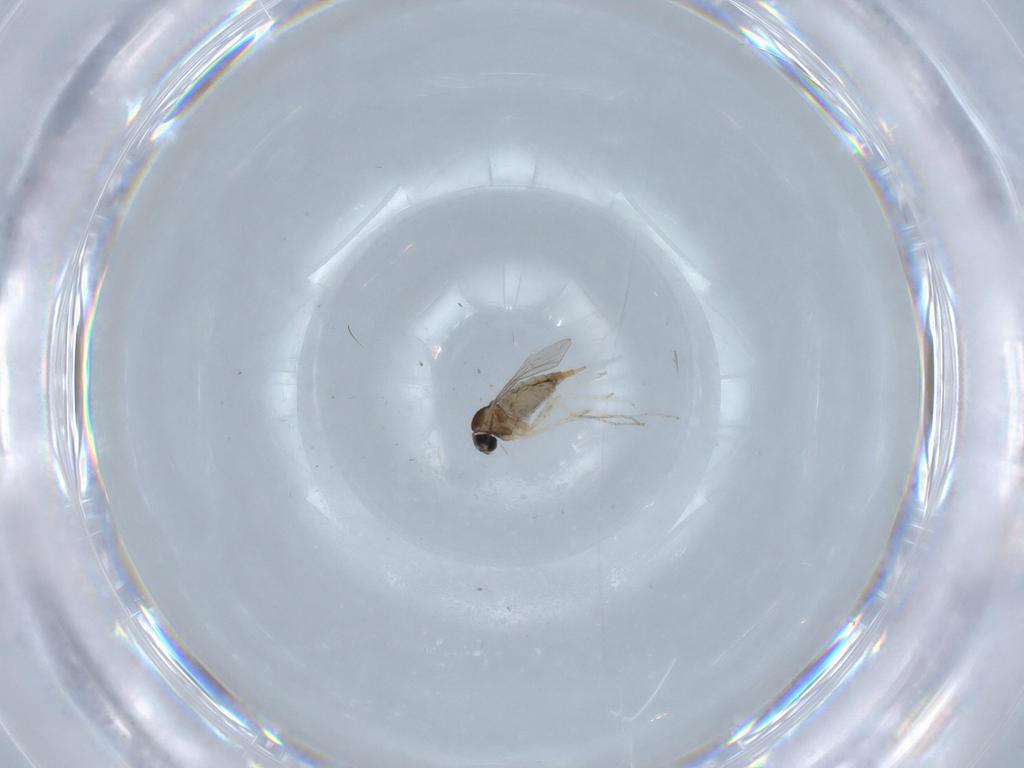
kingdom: Animalia
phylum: Arthropoda
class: Insecta
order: Diptera
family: Cecidomyiidae
